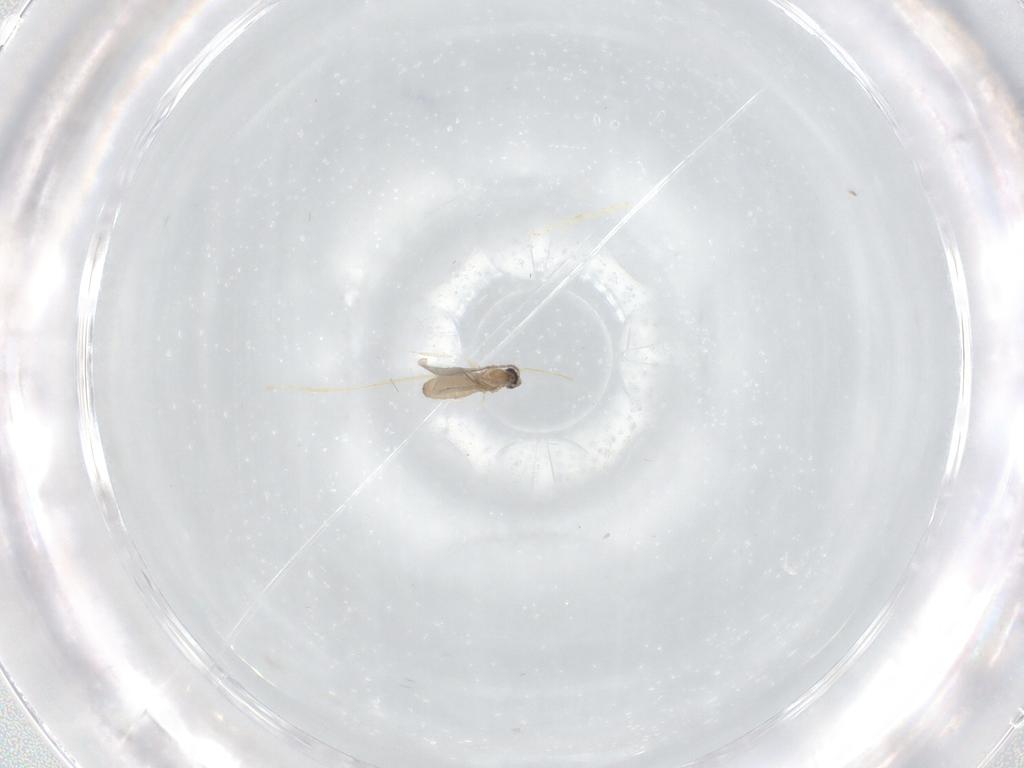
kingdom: Animalia
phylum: Arthropoda
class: Insecta
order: Diptera
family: Cecidomyiidae
